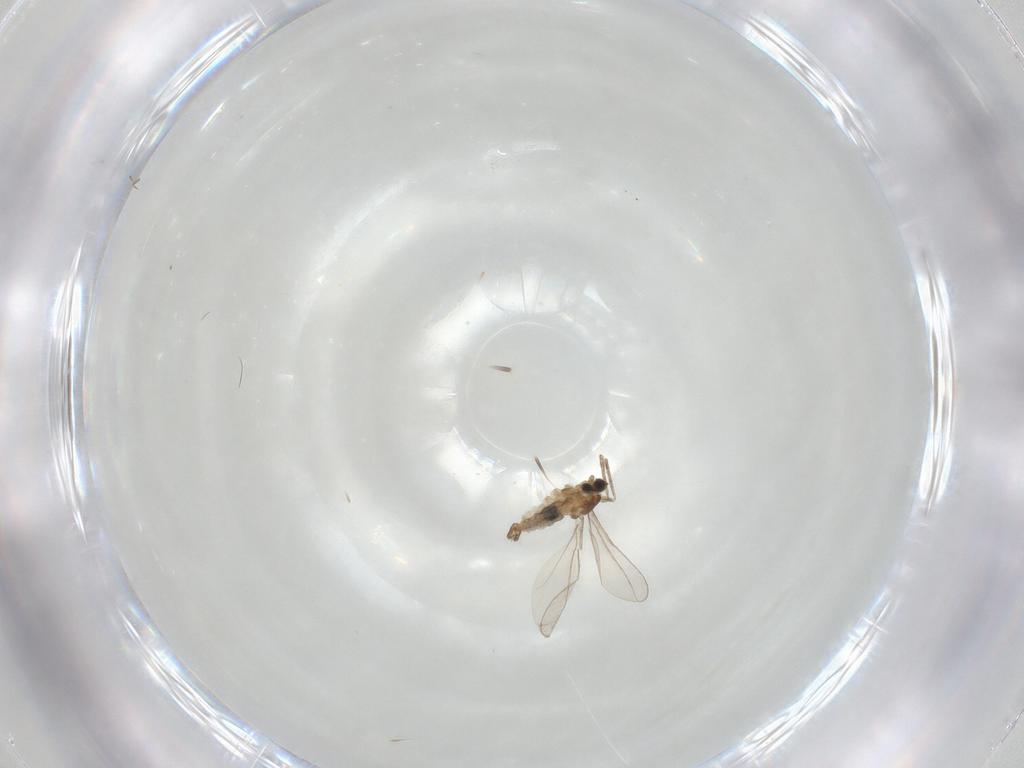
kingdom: Animalia
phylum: Arthropoda
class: Insecta
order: Diptera
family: Cecidomyiidae
